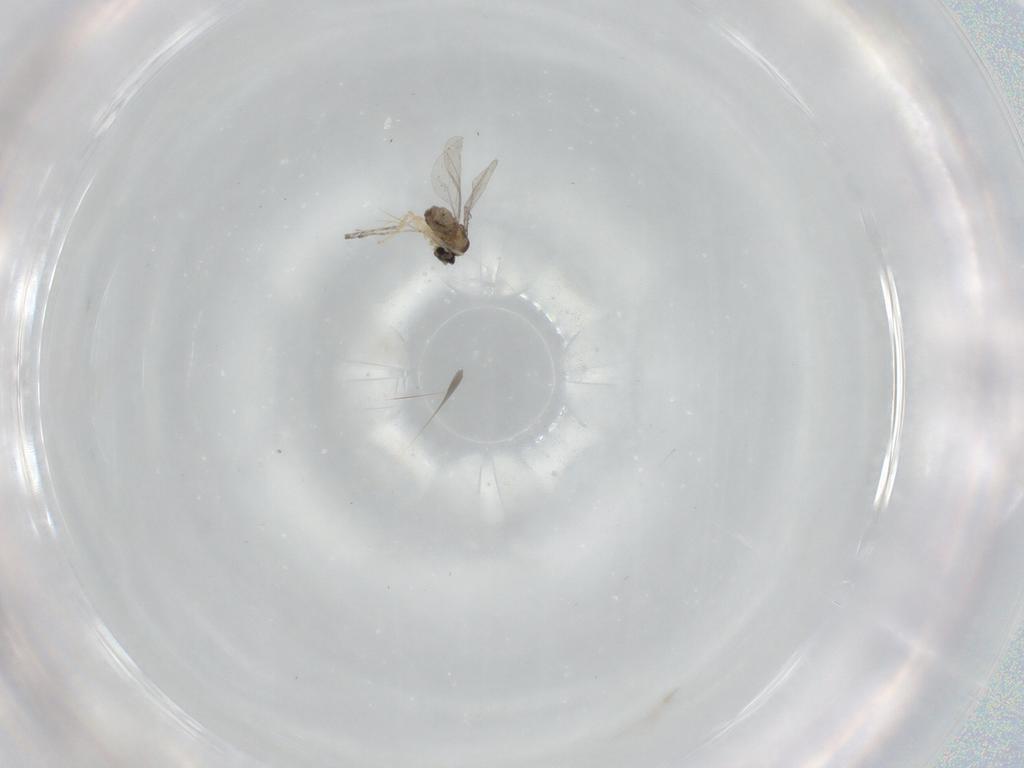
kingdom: Animalia
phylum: Arthropoda
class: Insecta
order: Diptera
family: Cecidomyiidae
